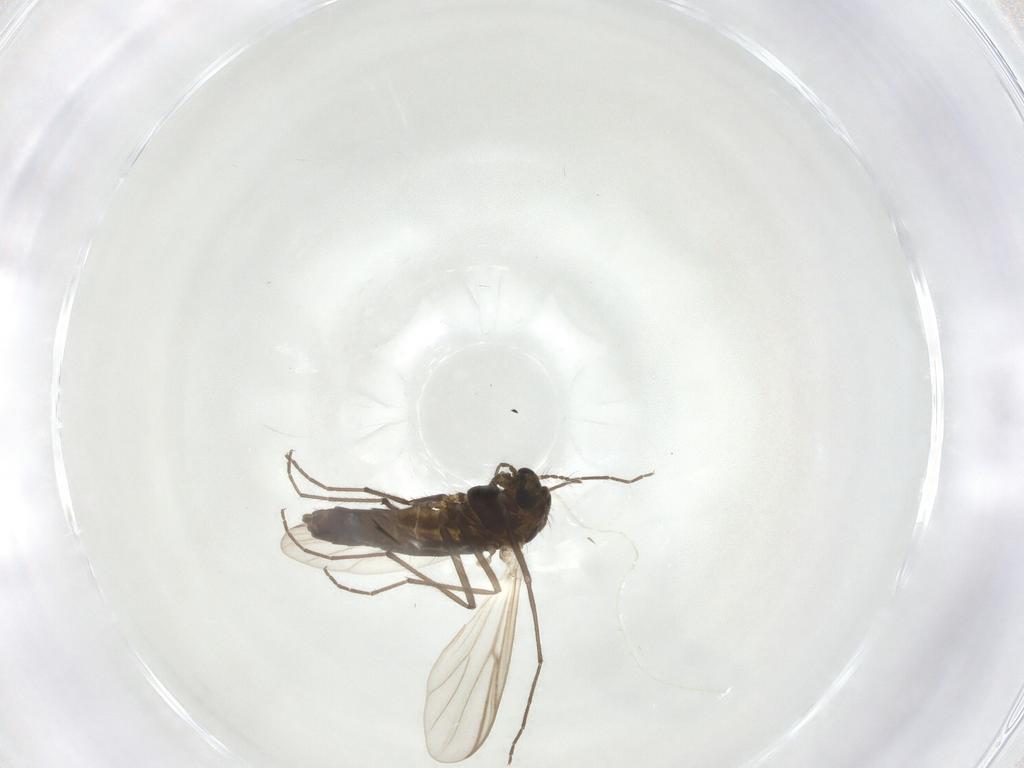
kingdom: Animalia
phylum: Arthropoda
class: Insecta
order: Diptera
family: Chironomidae
